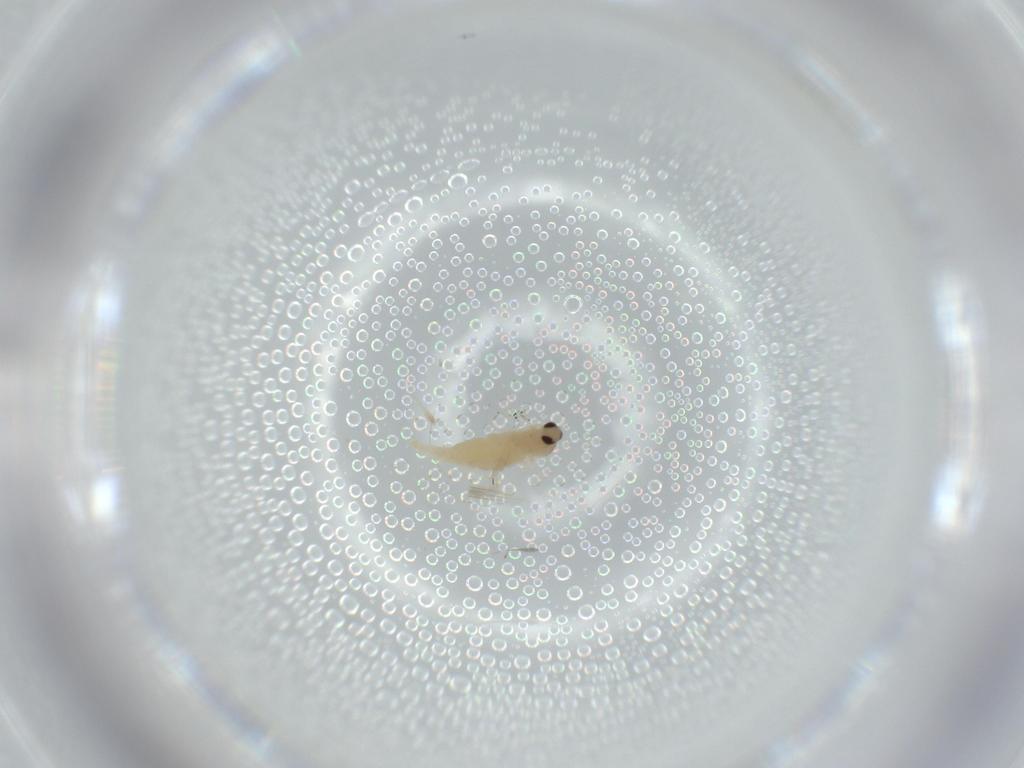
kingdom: Animalia
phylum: Arthropoda
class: Insecta
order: Diptera
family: Cecidomyiidae
